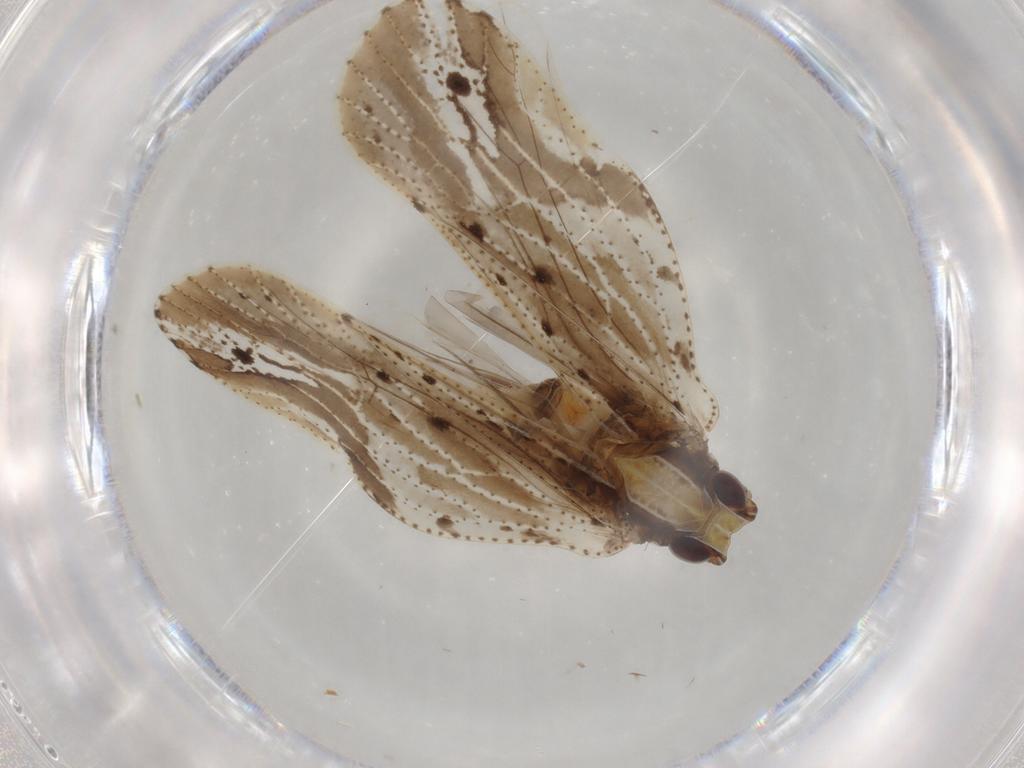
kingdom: Animalia
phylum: Arthropoda
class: Insecta
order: Hemiptera
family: Cixiidae
